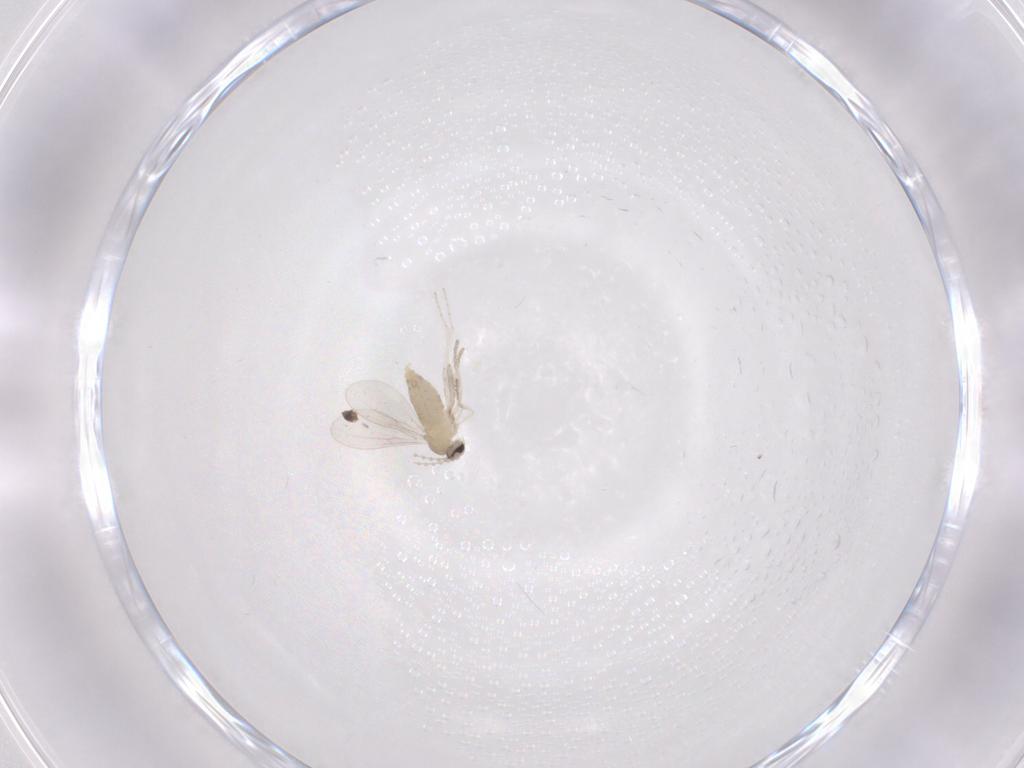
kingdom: Animalia
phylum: Arthropoda
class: Insecta
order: Diptera
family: Cecidomyiidae
